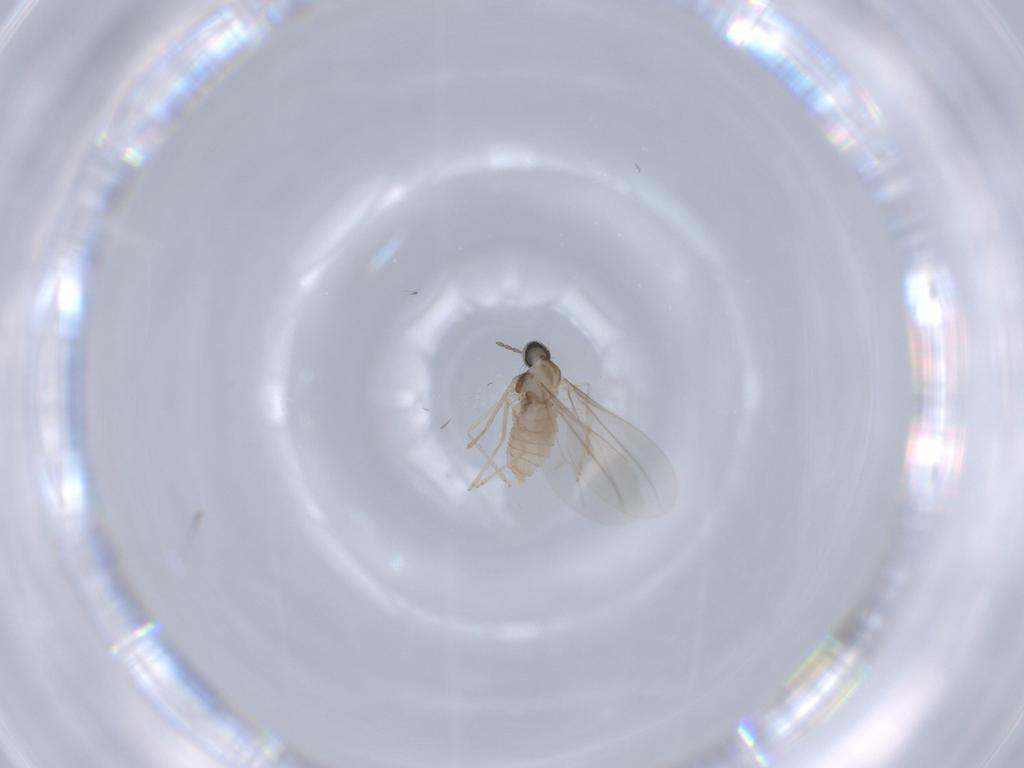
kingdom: Animalia
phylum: Arthropoda
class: Insecta
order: Diptera
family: Cecidomyiidae
